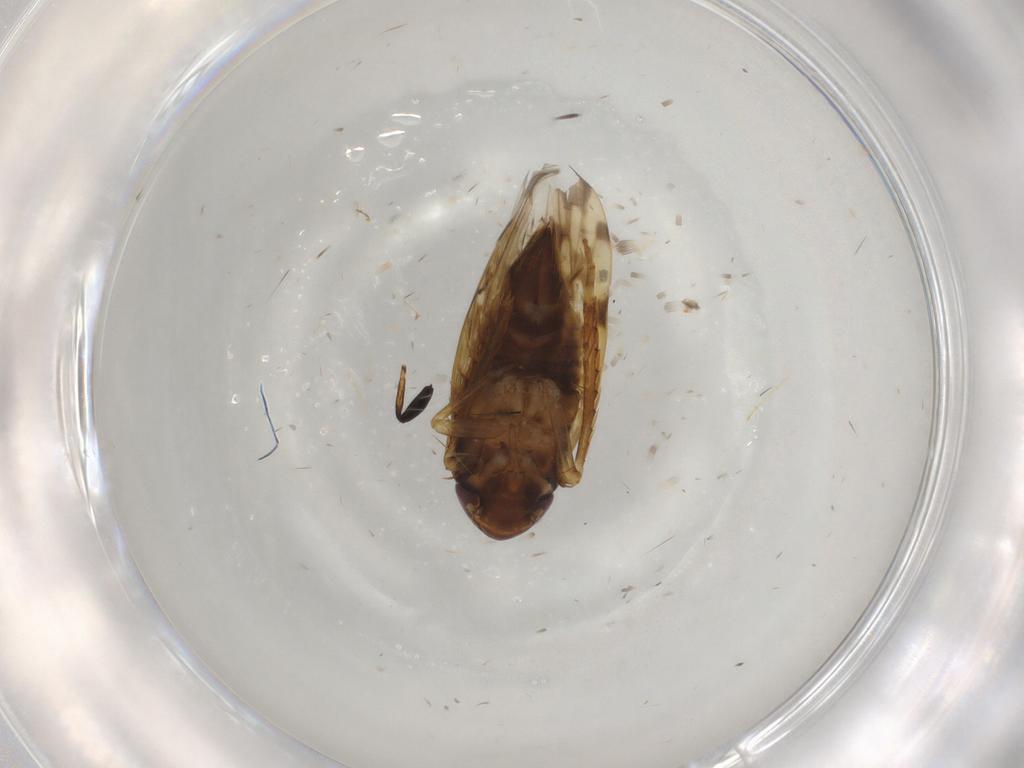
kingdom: Animalia
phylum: Arthropoda
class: Insecta
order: Hemiptera
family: Cicadellidae
